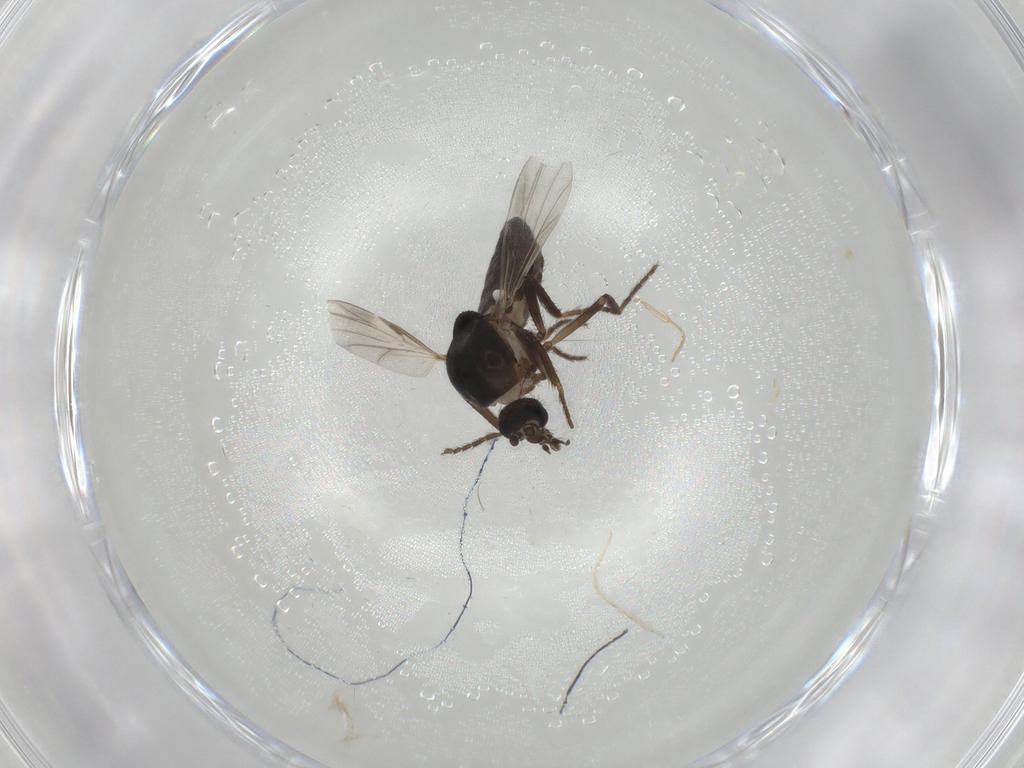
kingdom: Animalia
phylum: Arthropoda
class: Insecta
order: Diptera
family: Ceratopogonidae
